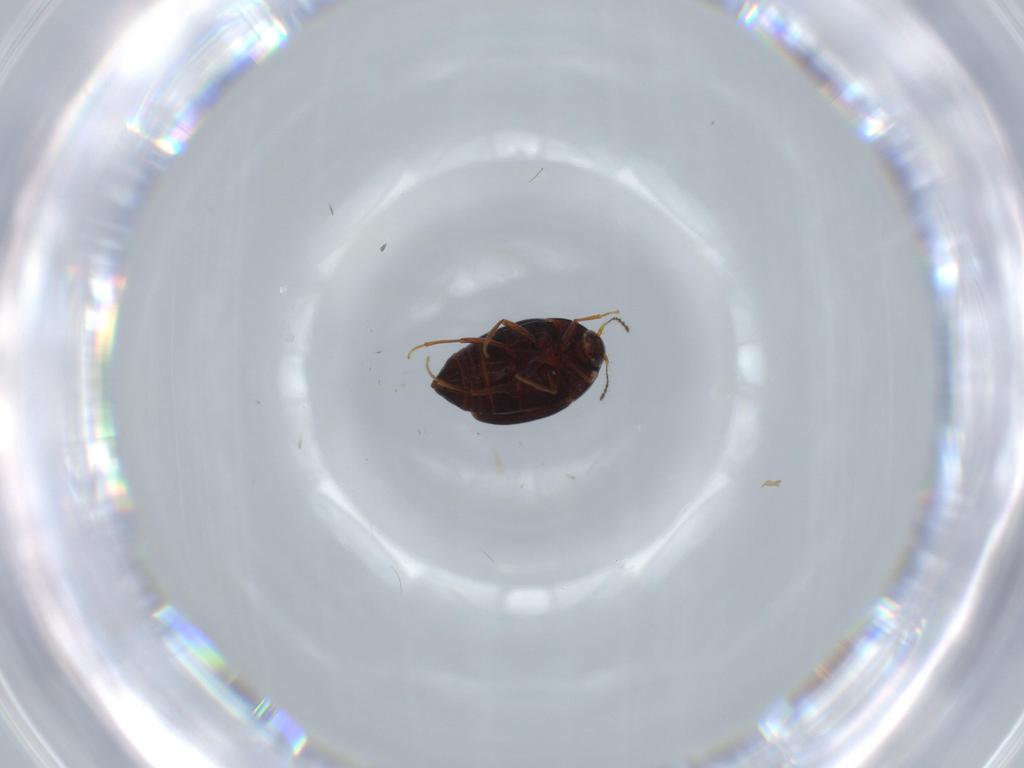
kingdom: Animalia
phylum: Arthropoda
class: Insecta
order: Coleoptera
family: Staphylinidae
